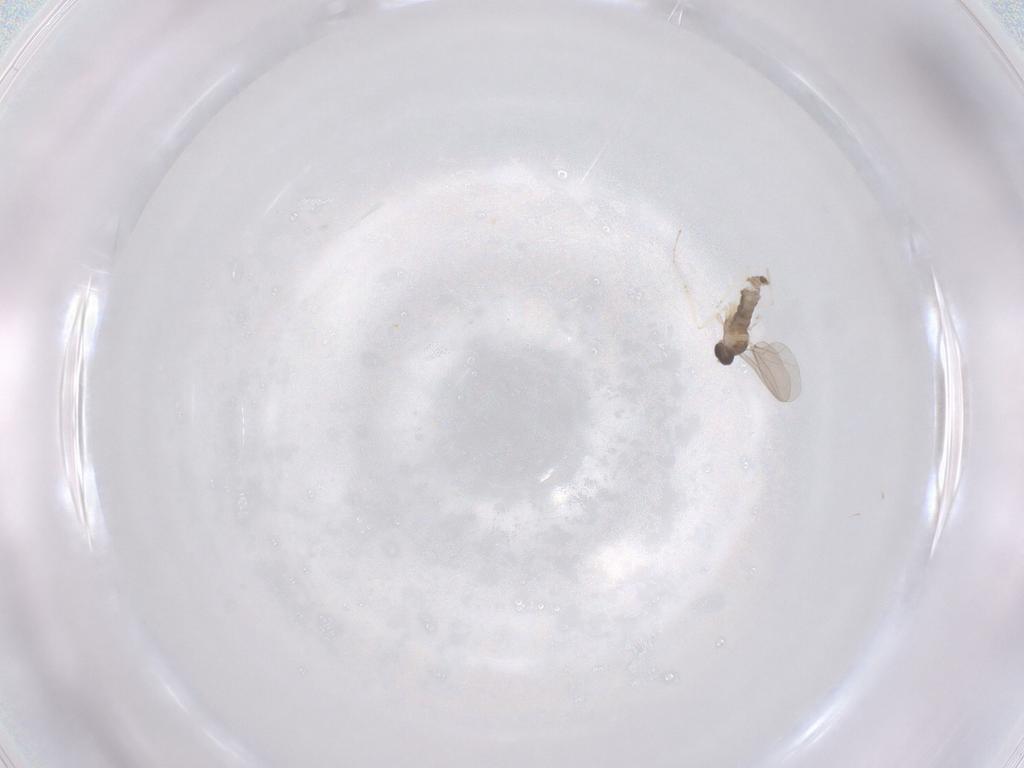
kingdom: Animalia
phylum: Arthropoda
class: Insecta
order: Diptera
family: Cecidomyiidae
